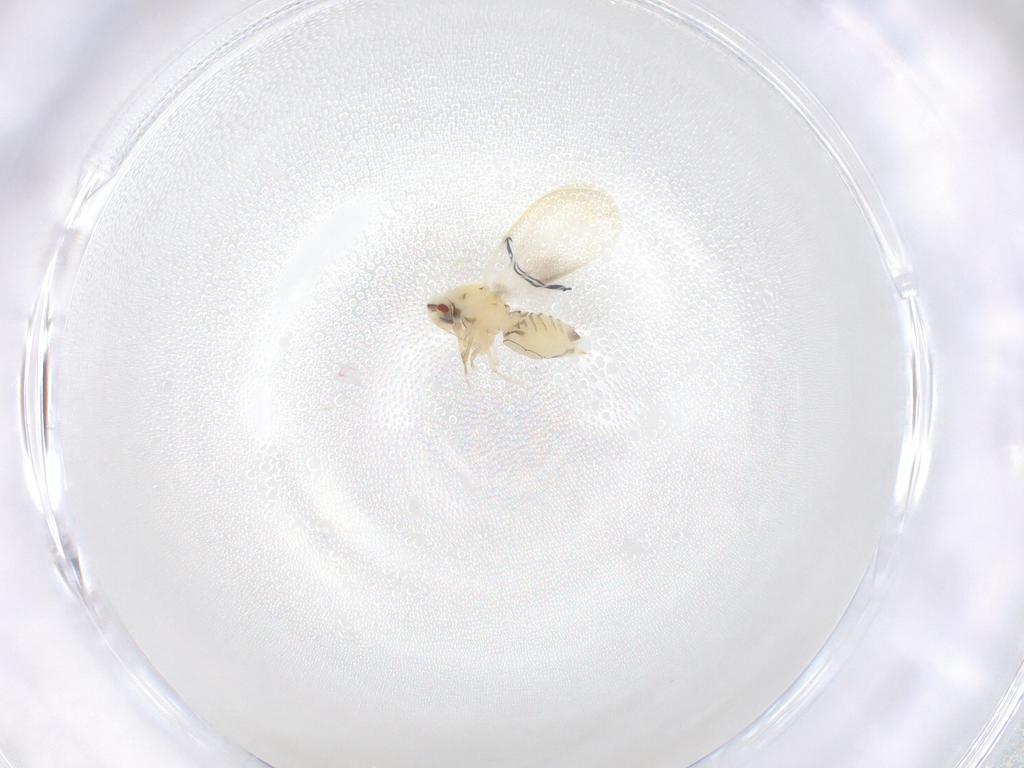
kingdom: Animalia
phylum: Arthropoda
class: Insecta
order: Hemiptera
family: Aleyrodidae
